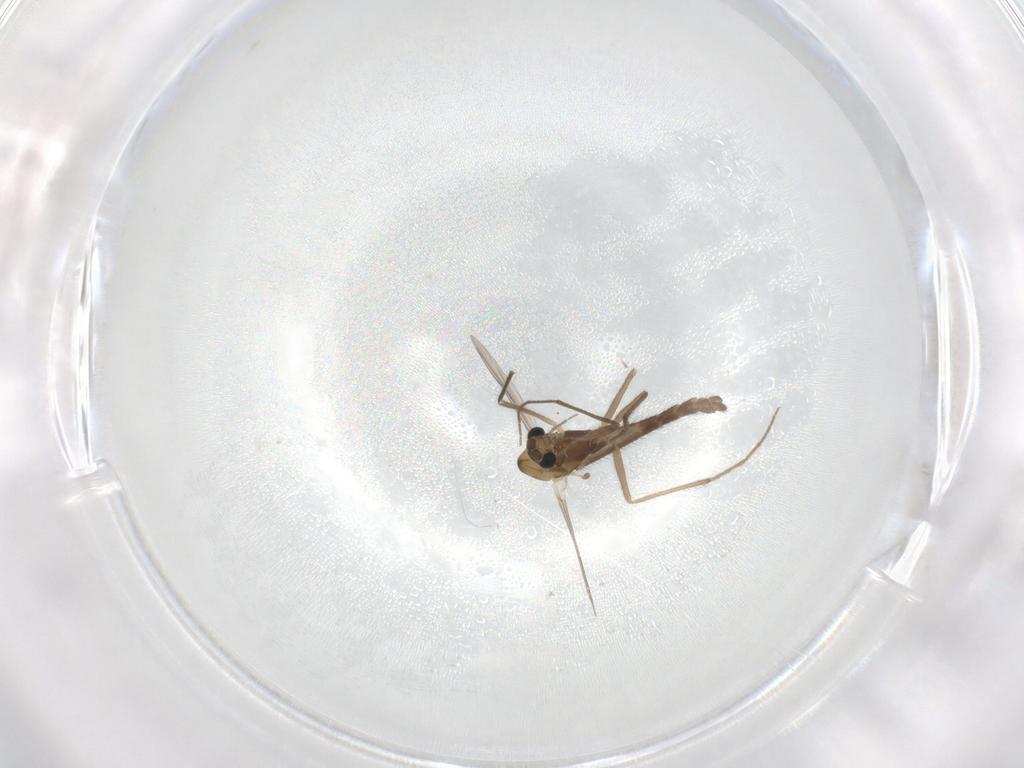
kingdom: Animalia
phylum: Arthropoda
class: Insecta
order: Diptera
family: Chironomidae
